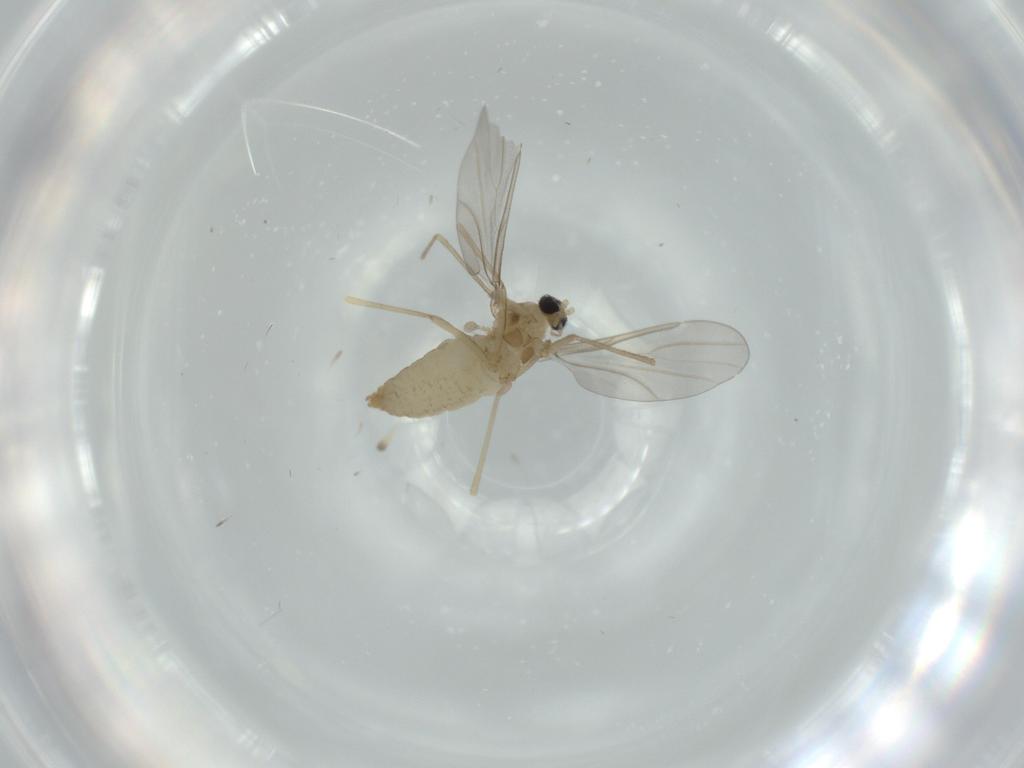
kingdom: Animalia
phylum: Arthropoda
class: Insecta
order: Diptera
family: Cecidomyiidae
